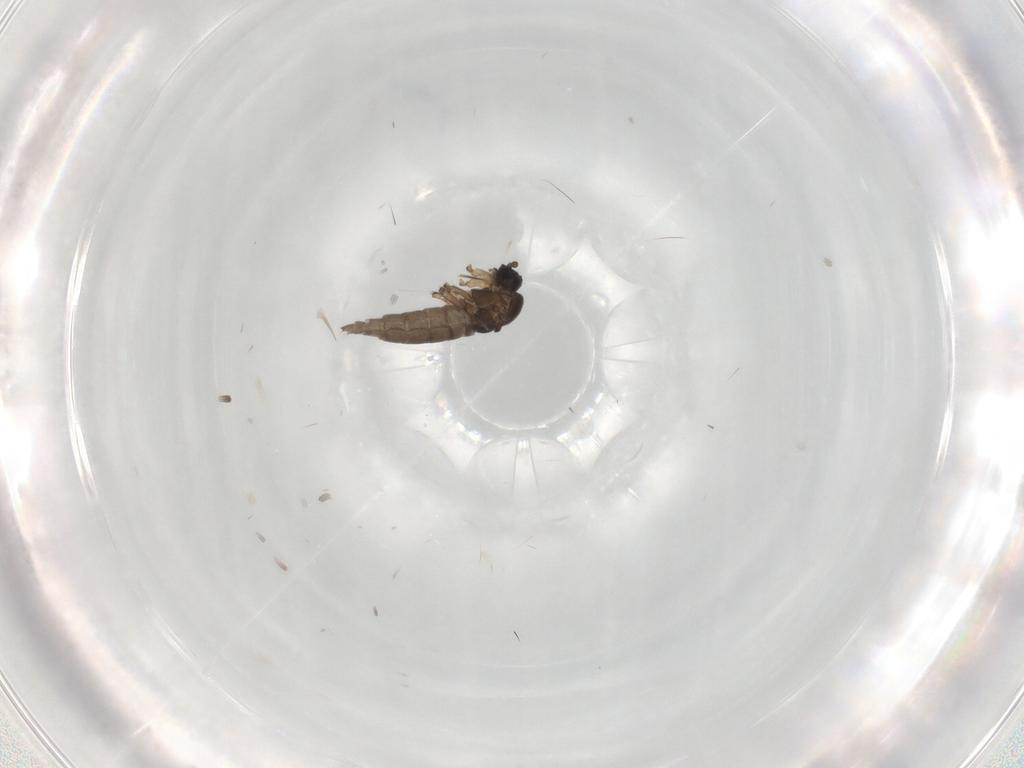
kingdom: Animalia
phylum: Arthropoda
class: Insecta
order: Diptera
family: Sciaridae
